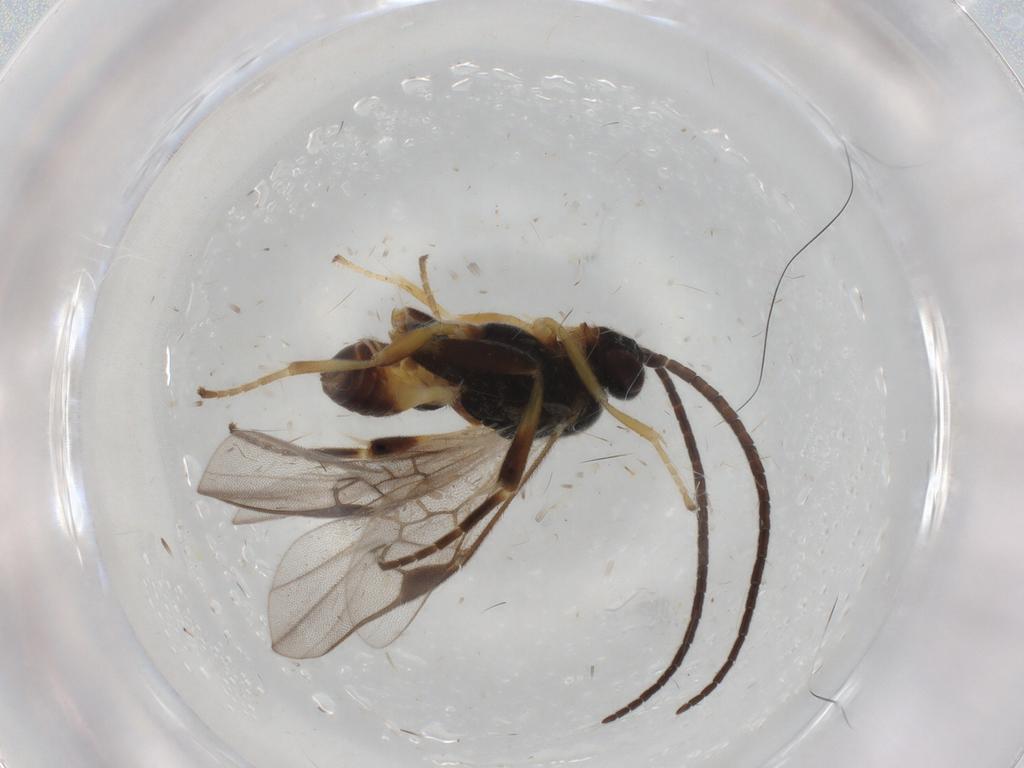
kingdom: Animalia
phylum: Arthropoda
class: Insecta
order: Hymenoptera
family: Braconidae
